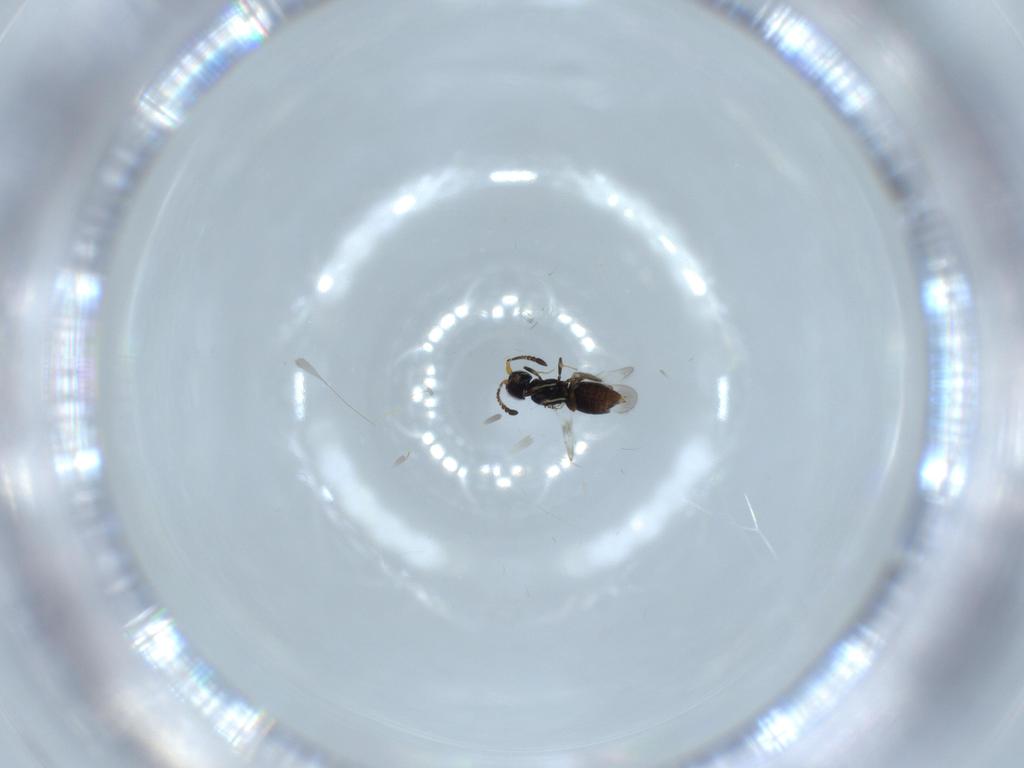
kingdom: Animalia
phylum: Arthropoda
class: Insecta
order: Hymenoptera
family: Ceraphronidae
